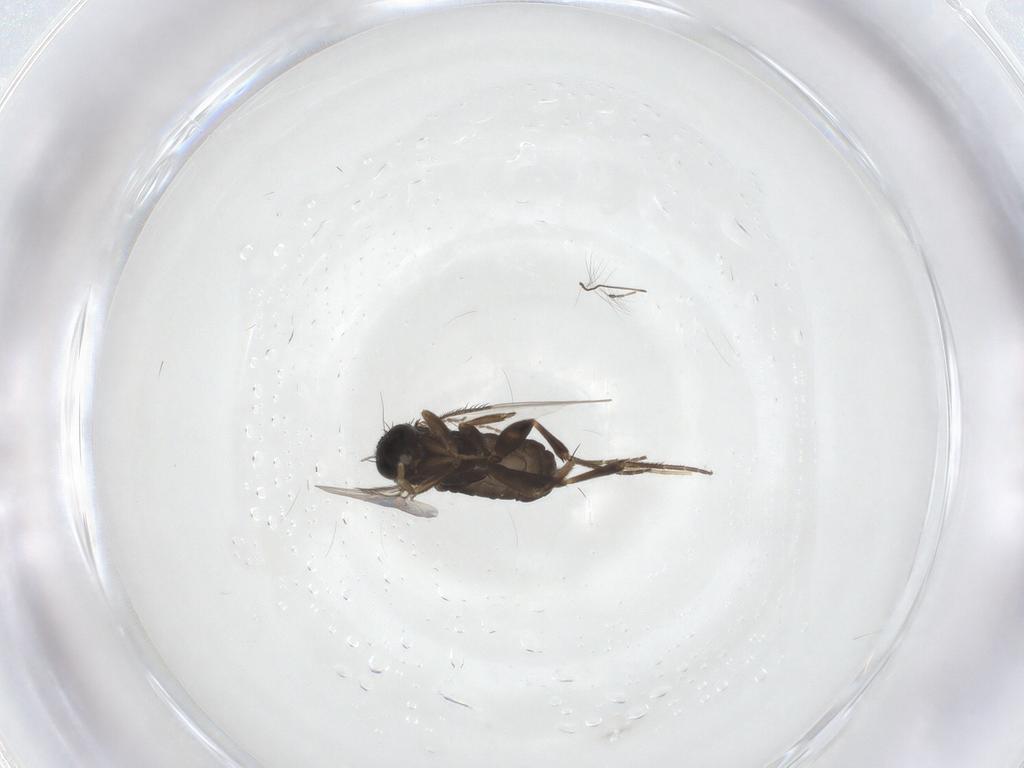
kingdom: Animalia
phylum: Arthropoda
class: Insecta
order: Diptera
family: Phoridae
